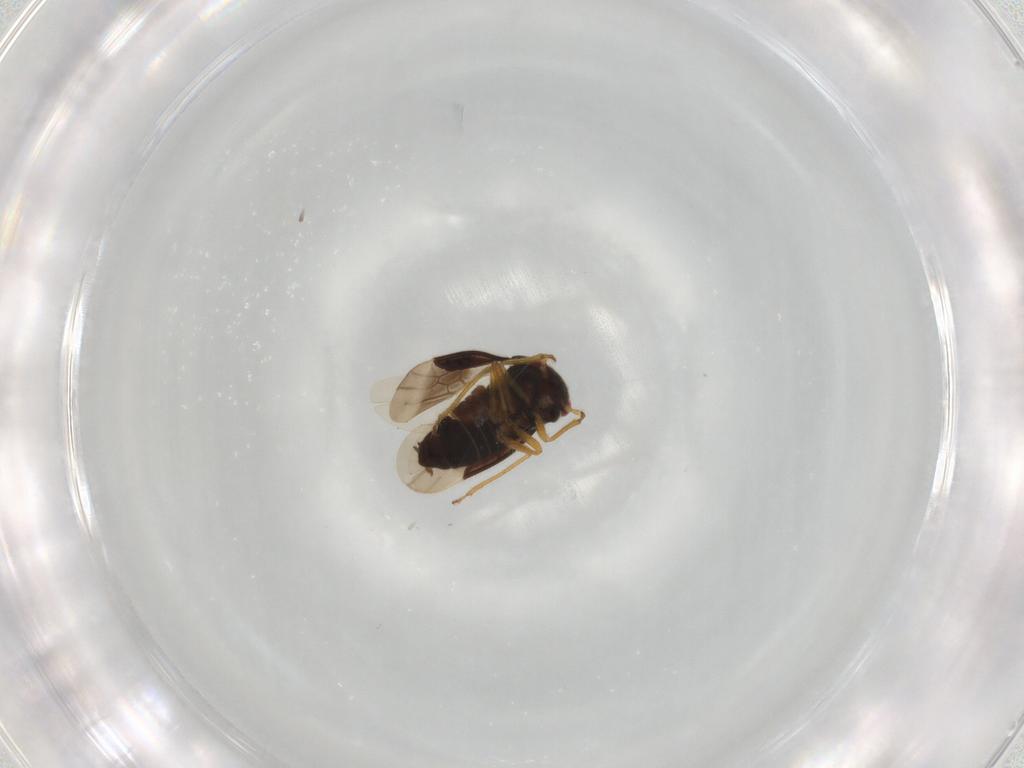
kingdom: Animalia
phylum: Arthropoda
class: Insecta
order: Hemiptera
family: Schizopteridae
